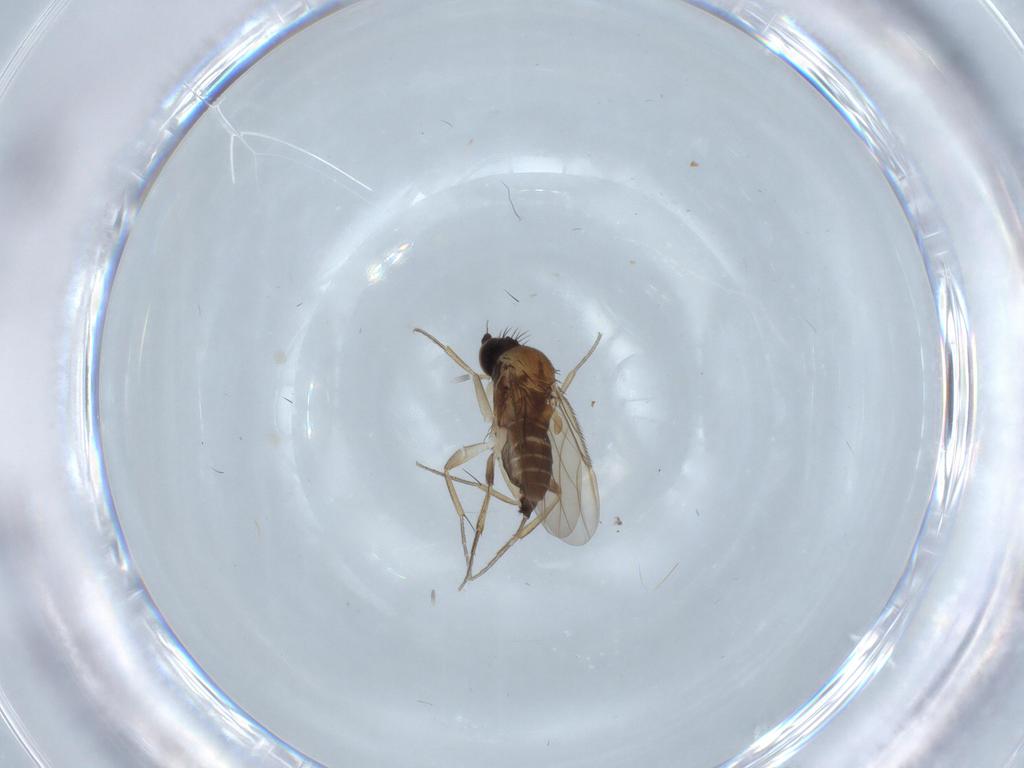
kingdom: Animalia
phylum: Arthropoda
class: Insecta
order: Diptera
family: Phoridae
